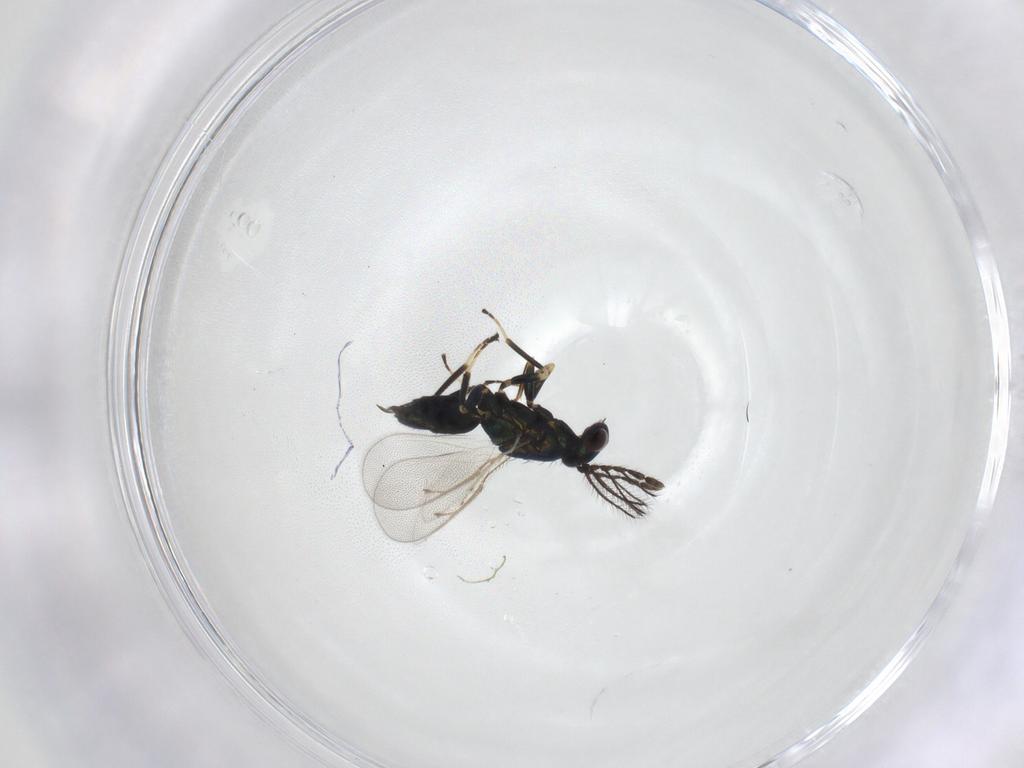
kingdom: Animalia
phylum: Arthropoda
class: Insecta
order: Hymenoptera
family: Eulophidae
